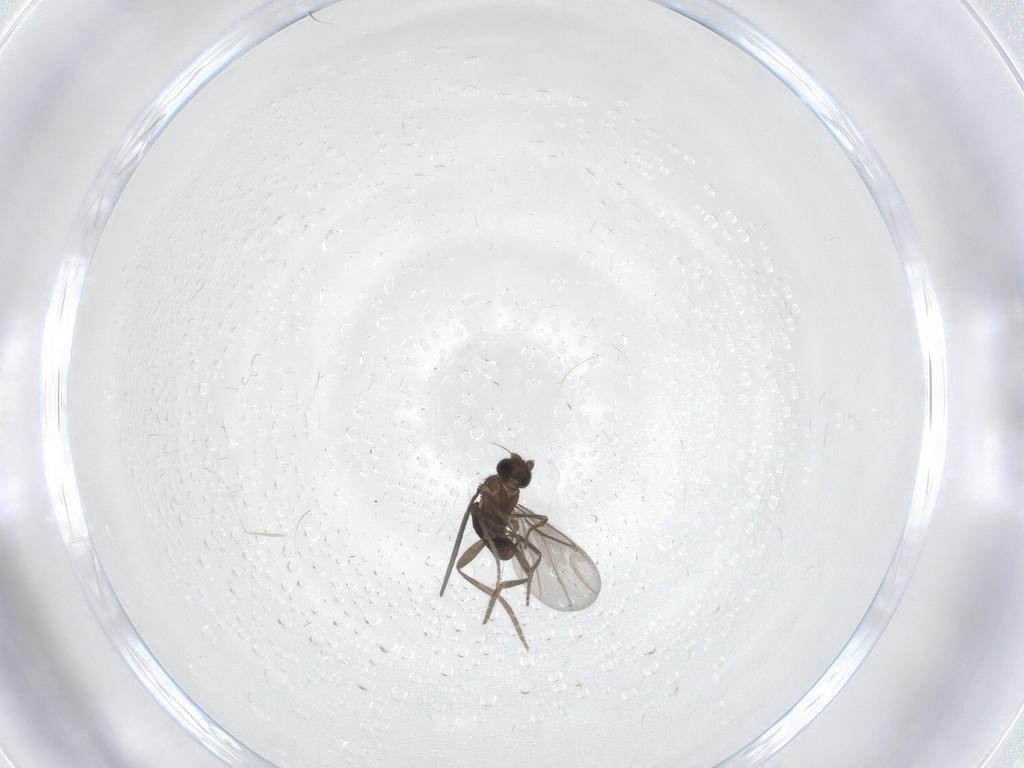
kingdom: Animalia
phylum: Arthropoda
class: Insecta
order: Diptera
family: Phoridae
